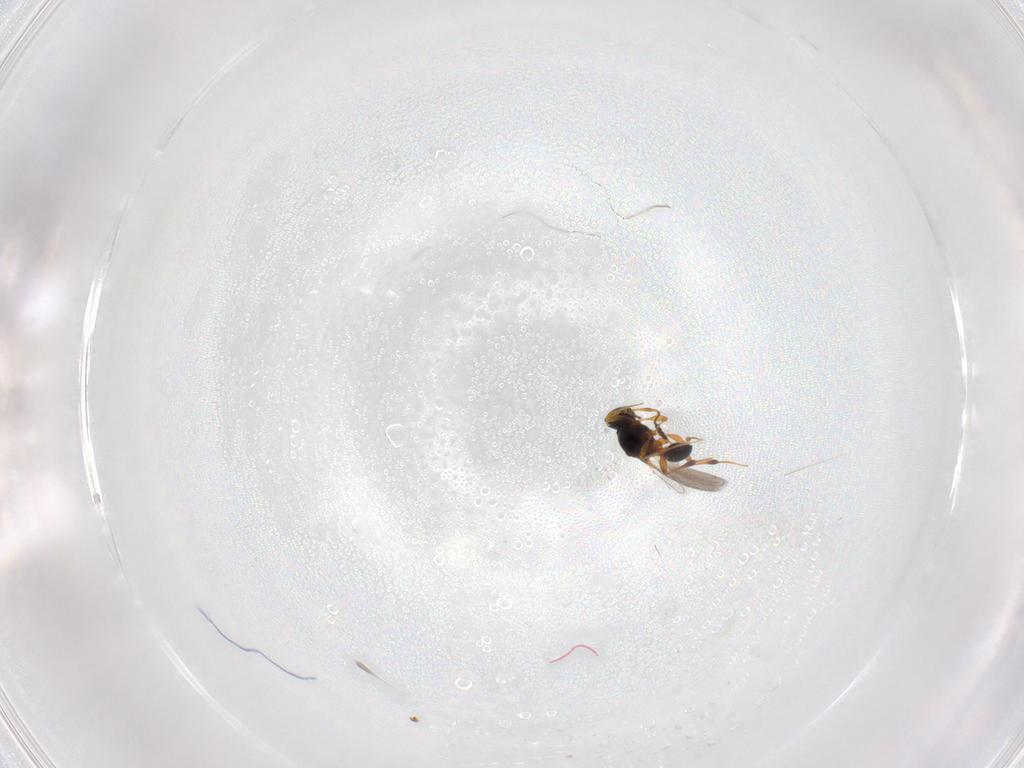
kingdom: Animalia
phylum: Arthropoda
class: Insecta
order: Hymenoptera
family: Platygastridae
